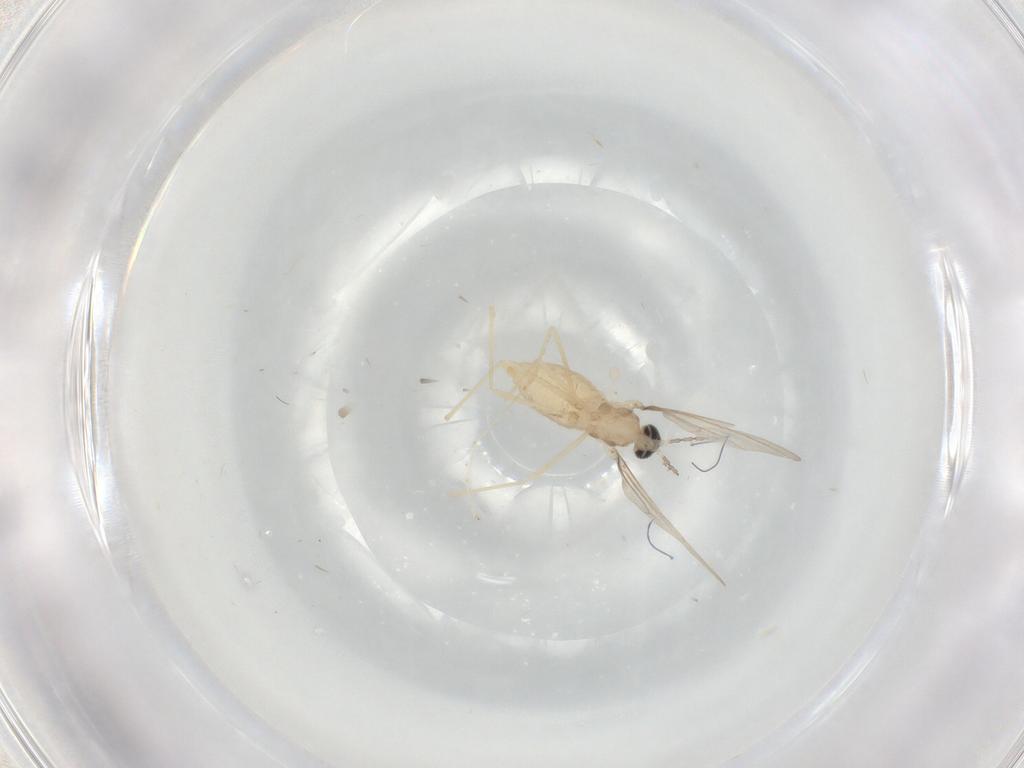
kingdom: Animalia
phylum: Arthropoda
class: Insecta
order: Diptera
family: Cecidomyiidae
